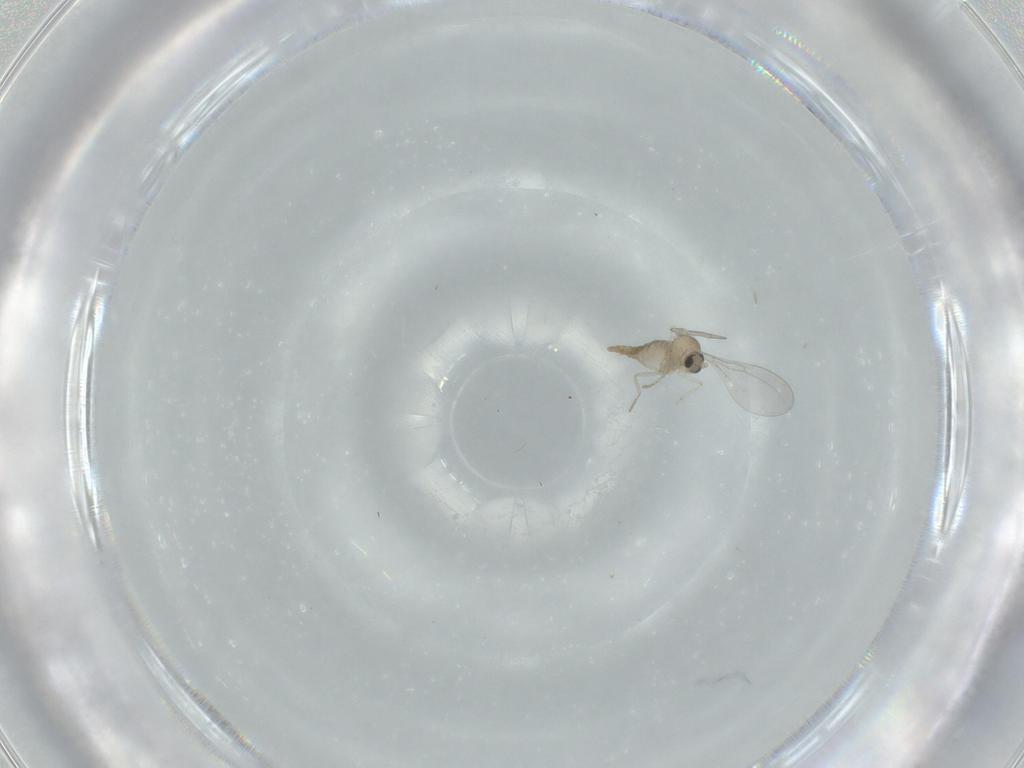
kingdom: Animalia
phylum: Arthropoda
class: Insecta
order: Diptera
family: Cecidomyiidae
